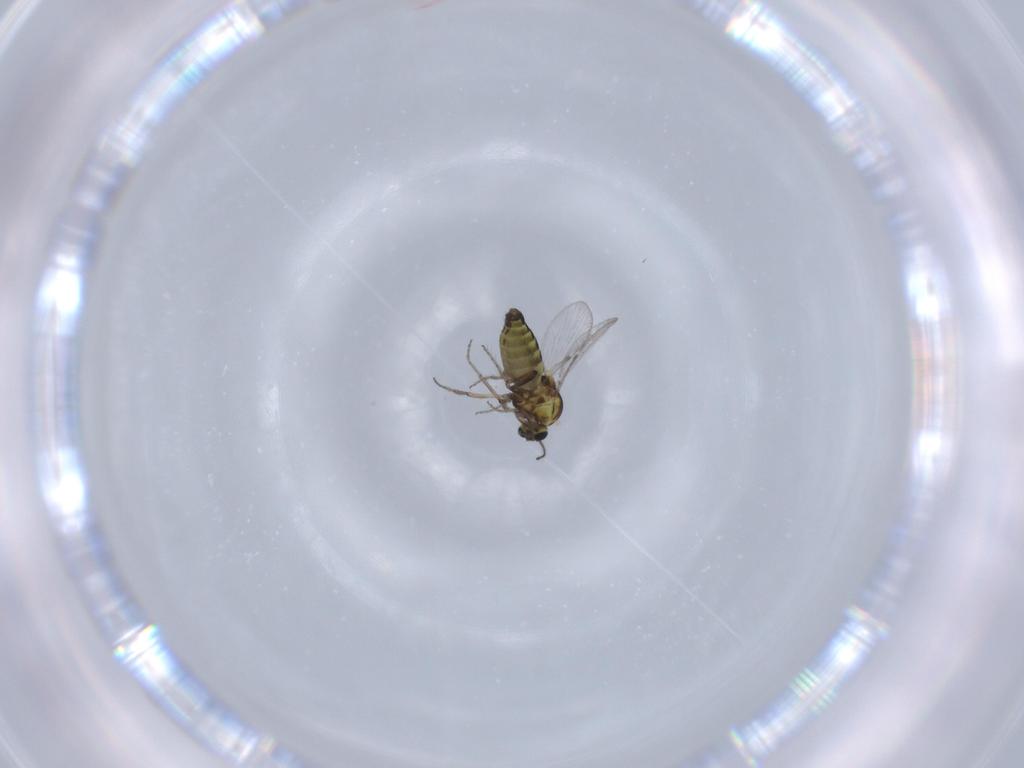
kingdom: Animalia
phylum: Arthropoda
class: Insecta
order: Diptera
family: Ceratopogonidae
